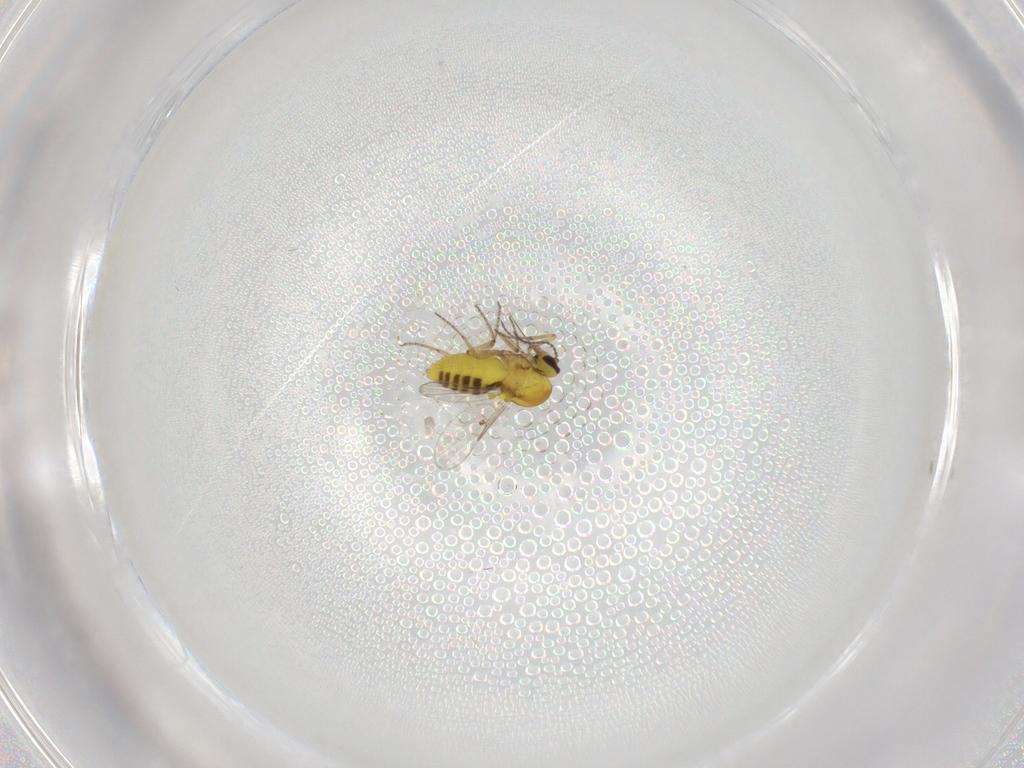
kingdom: Animalia
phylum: Arthropoda
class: Insecta
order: Diptera
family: Ceratopogonidae
